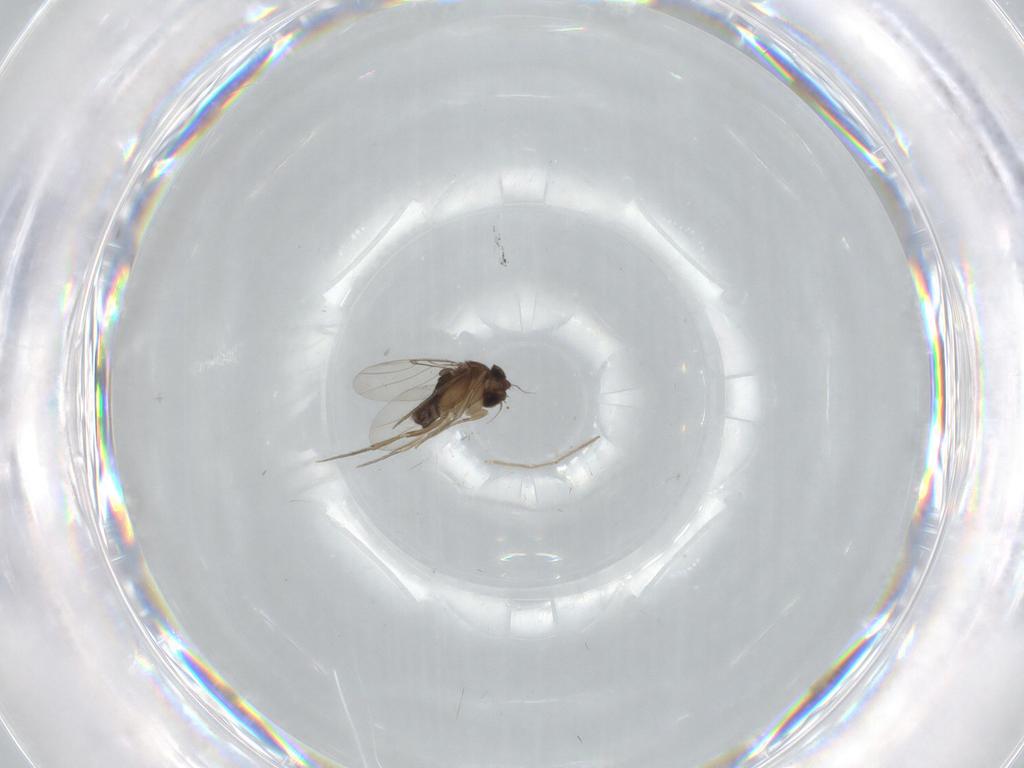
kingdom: Animalia
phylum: Arthropoda
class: Insecta
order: Diptera
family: Phoridae
